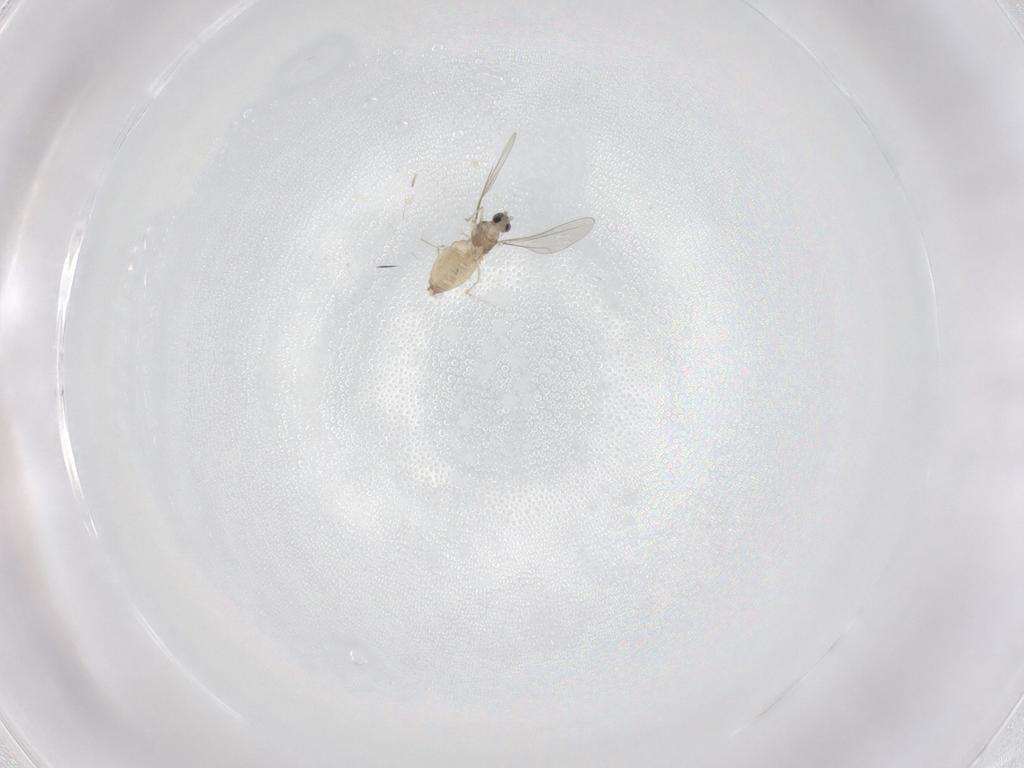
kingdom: Animalia
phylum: Arthropoda
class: Insecta
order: Diptera
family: Cecidomyiidae
